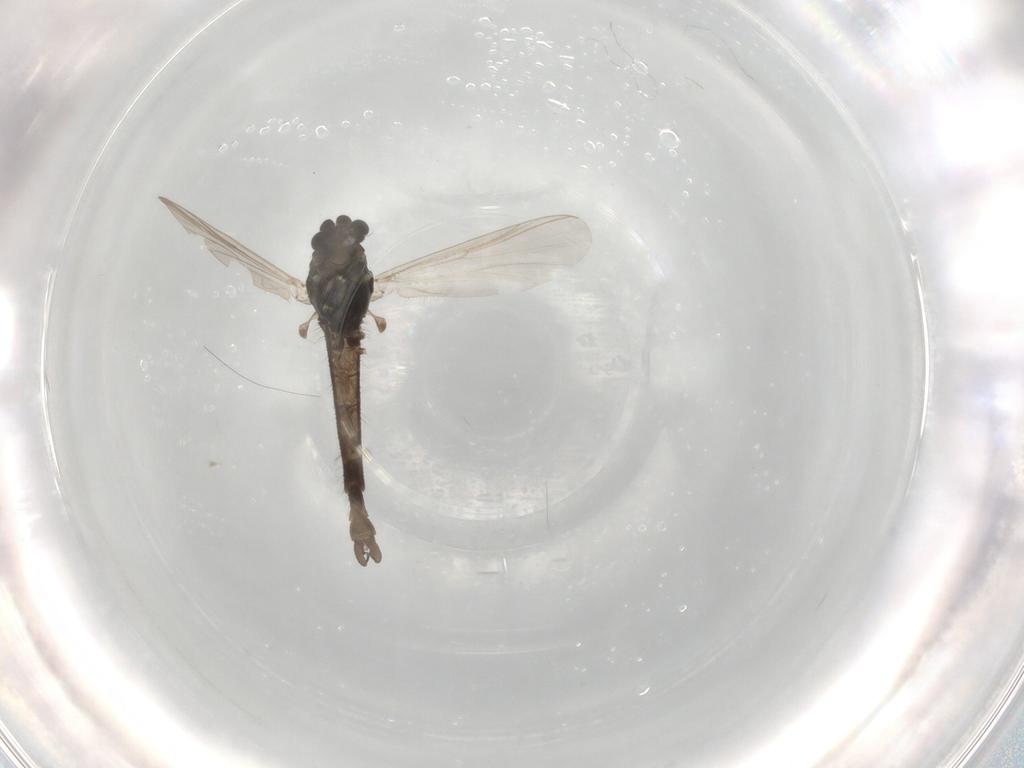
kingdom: Animalia
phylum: Arthropoda
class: Insecta
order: Diptera
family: Chironomidae
